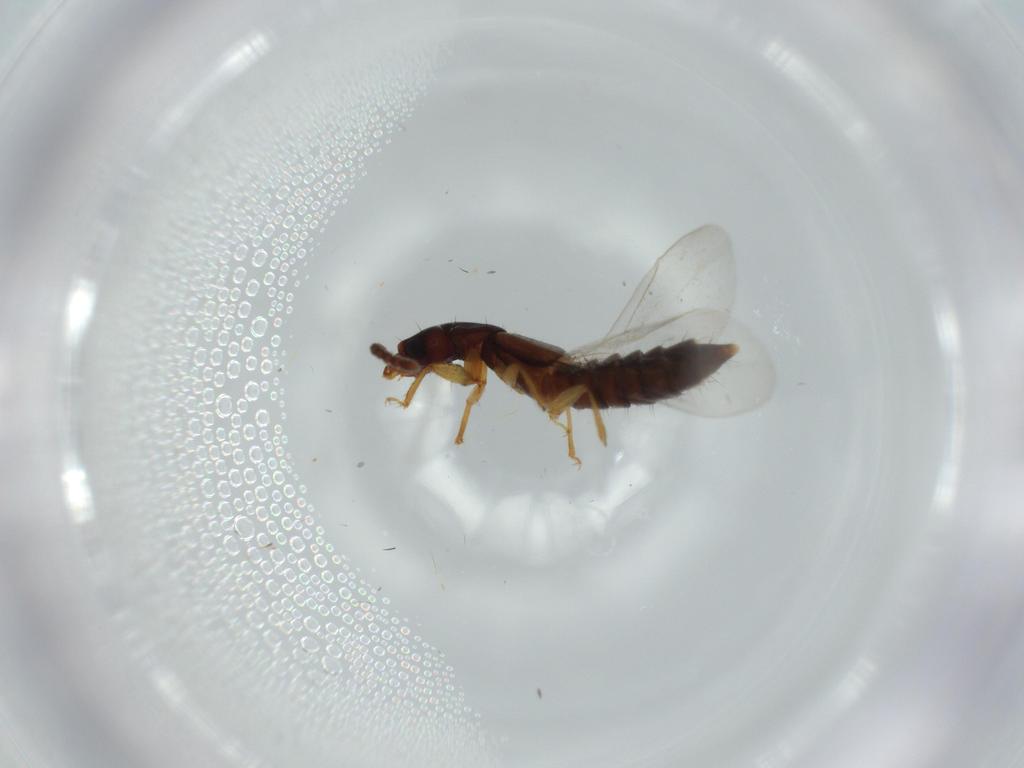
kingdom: Animalia
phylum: Arthropoda
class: Insecta
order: Coleoptera
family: Staphylinidae
